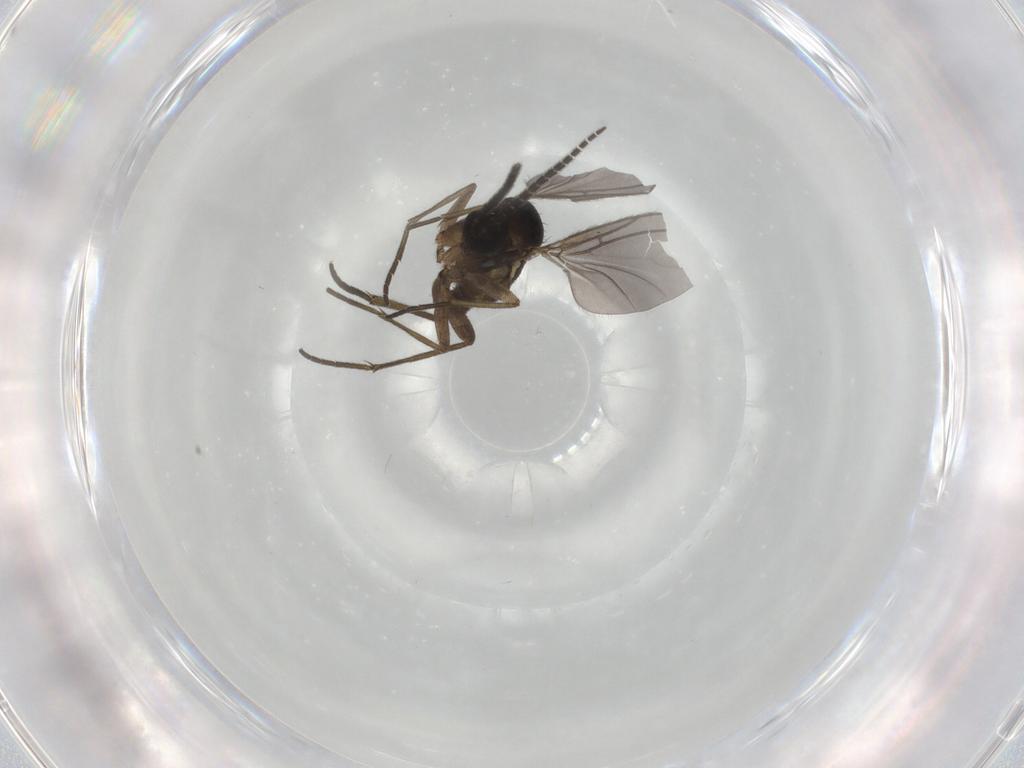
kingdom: Animalia
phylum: Arthropoda
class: Insecta
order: Diptera
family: Sciaridae
